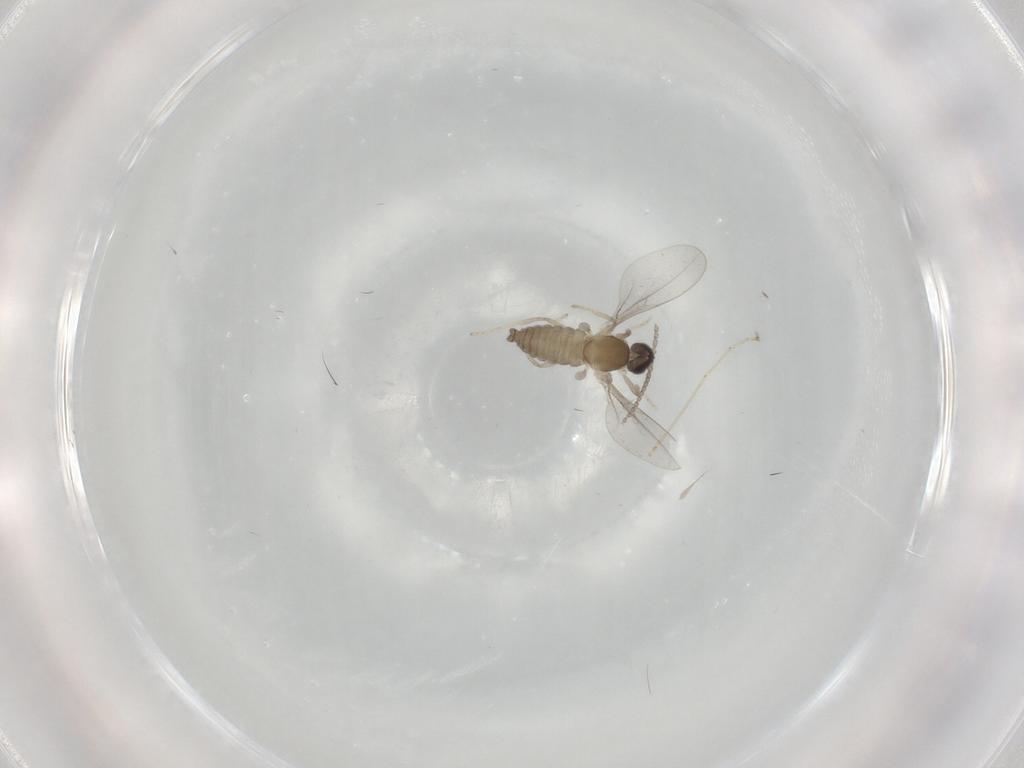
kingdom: Animalia
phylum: Arthropoda
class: Insecta
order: Diptera
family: Cecidomyiidae
